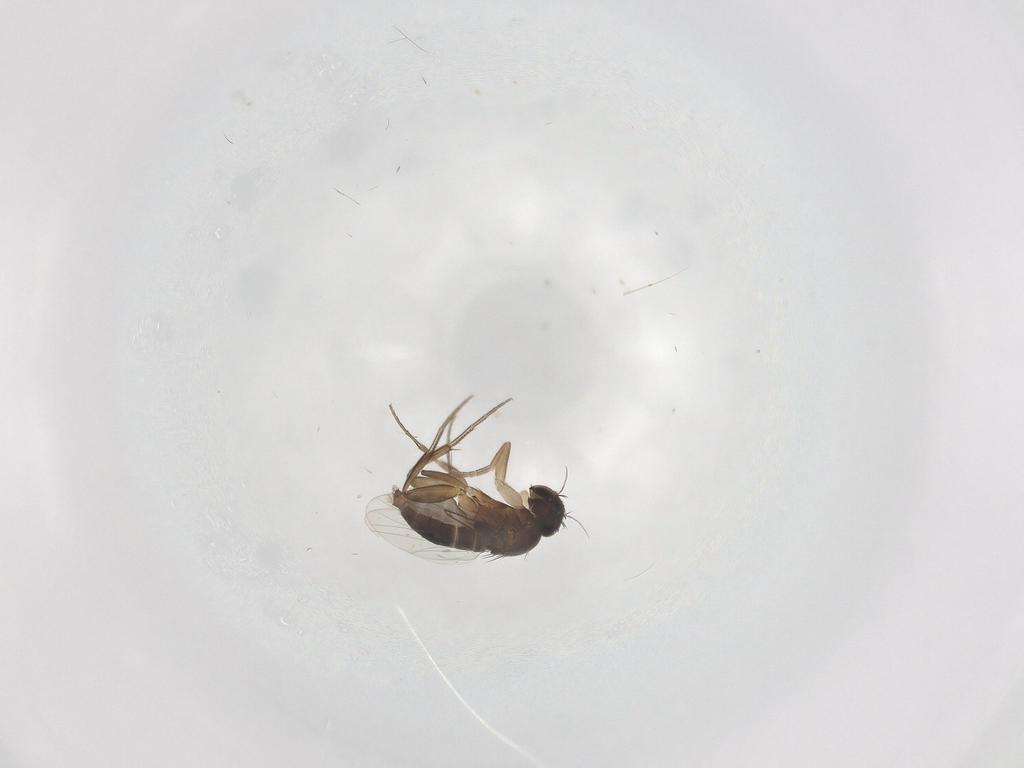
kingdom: Animalia
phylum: Arthropoda
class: Insecta
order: Diptera
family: Phoridae
